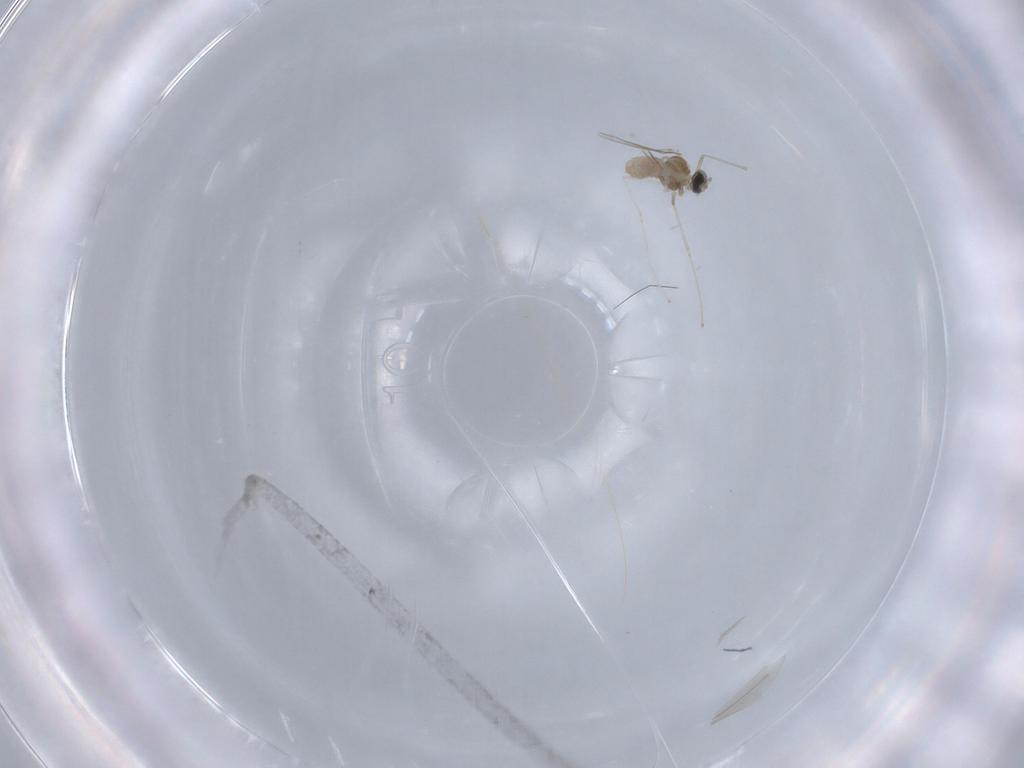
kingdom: Animalia
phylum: Arthropoda
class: Insecta
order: Diptera
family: Cecidomyiidae
